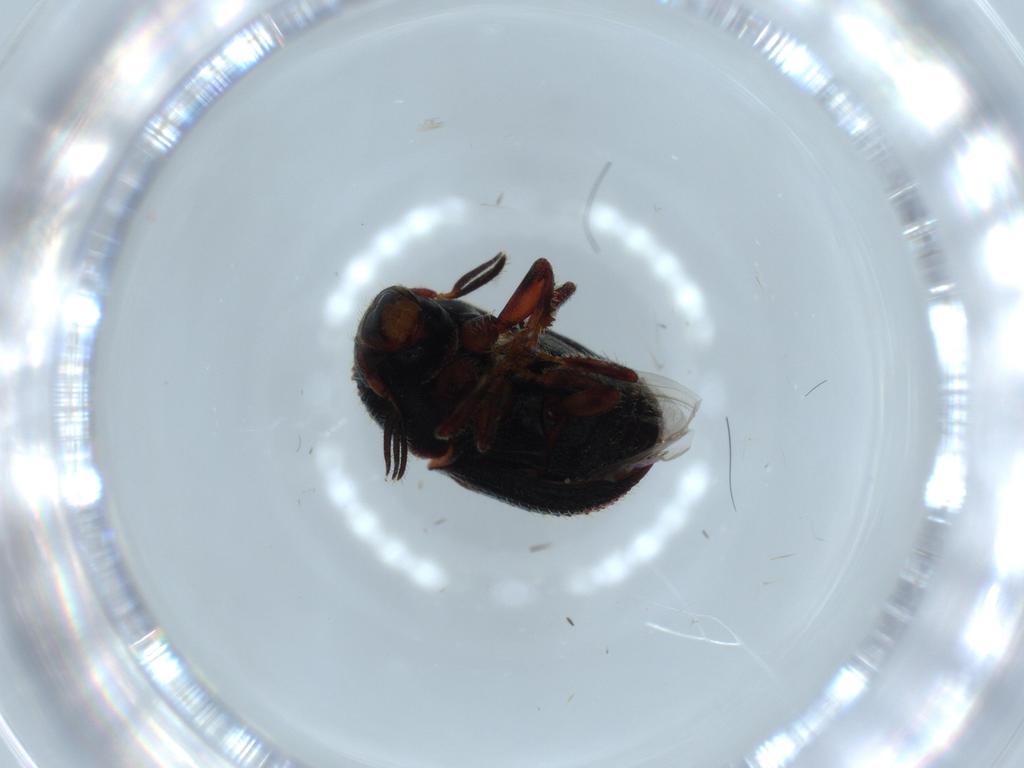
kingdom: Animalia
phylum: Arthropoda
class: Insecta
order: Coleoptera
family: Curculionidae
